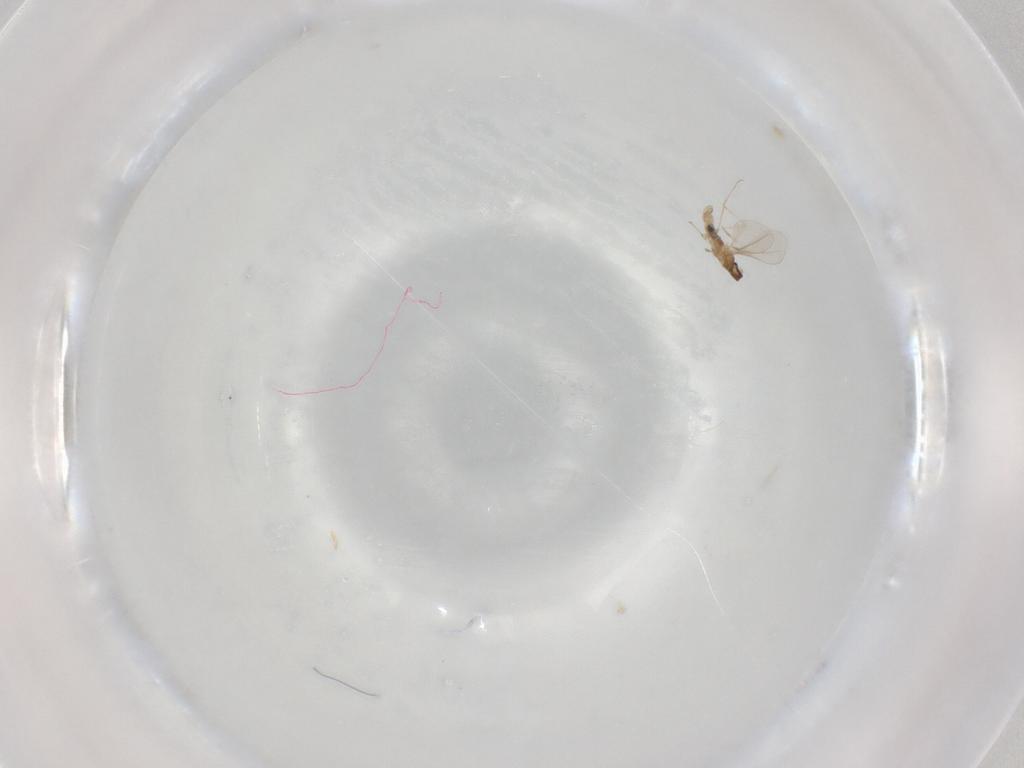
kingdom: Animalia
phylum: Arthropoda
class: Insecta
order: Diptera
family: Cecidomyiidae
